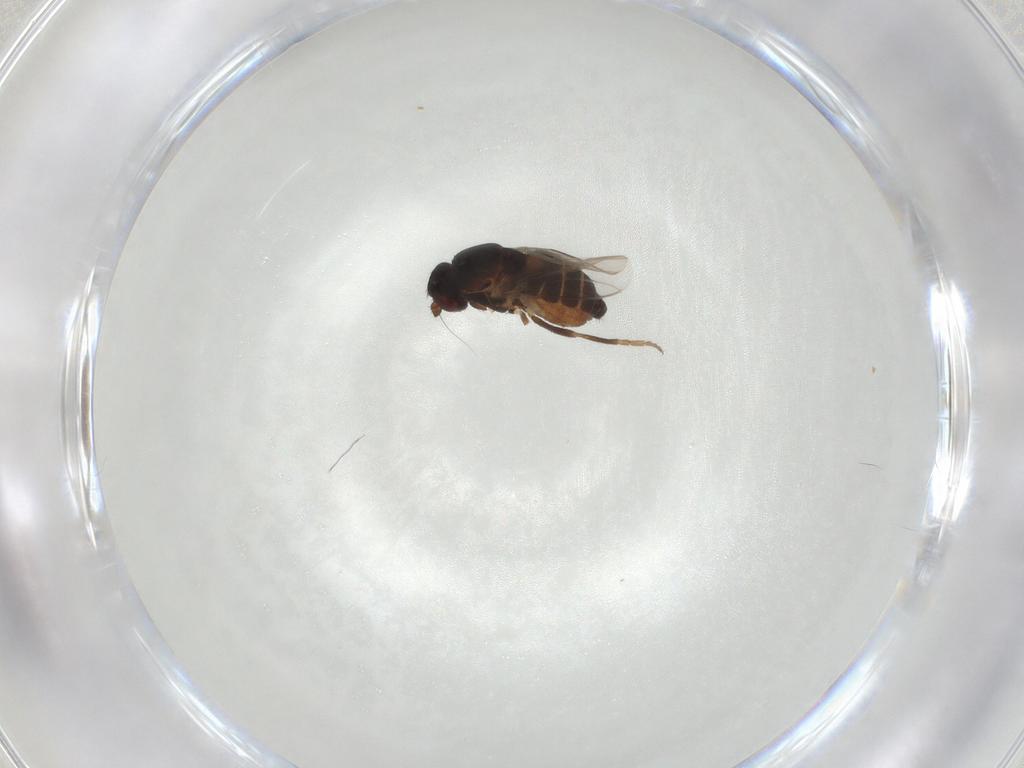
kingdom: Animalia
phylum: Arthropoda
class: Insecta
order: Diptera
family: Sphaeroceridae
